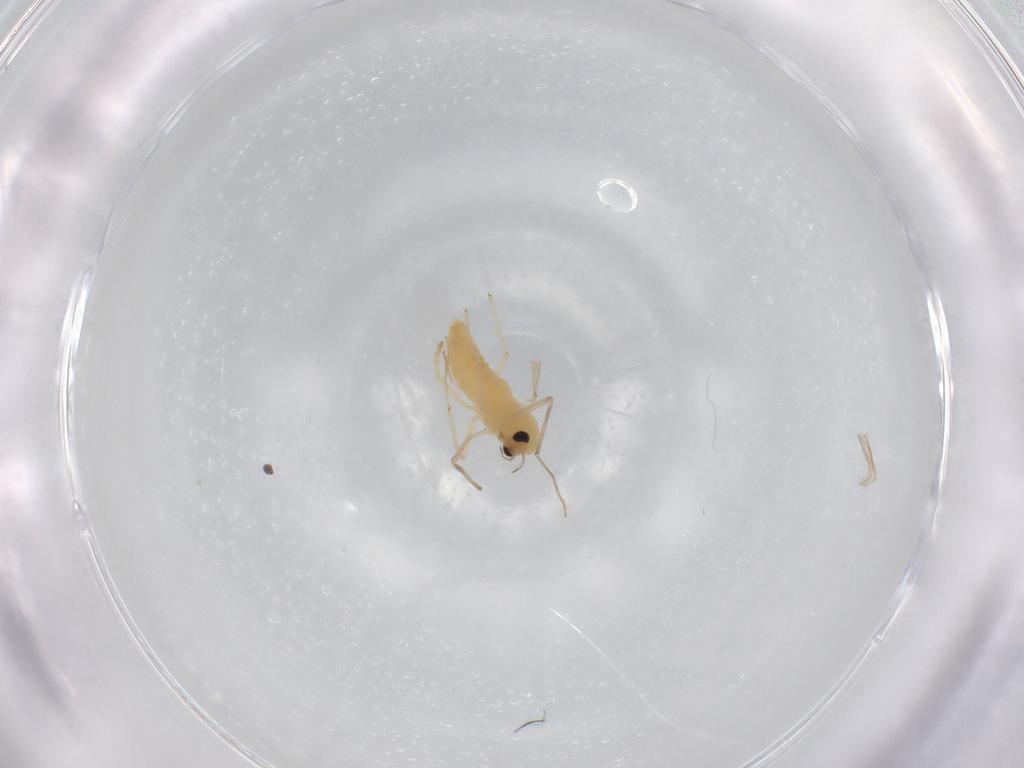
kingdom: Animalia
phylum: Arthropoda
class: Insecta
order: Diptera
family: Chironomidae
